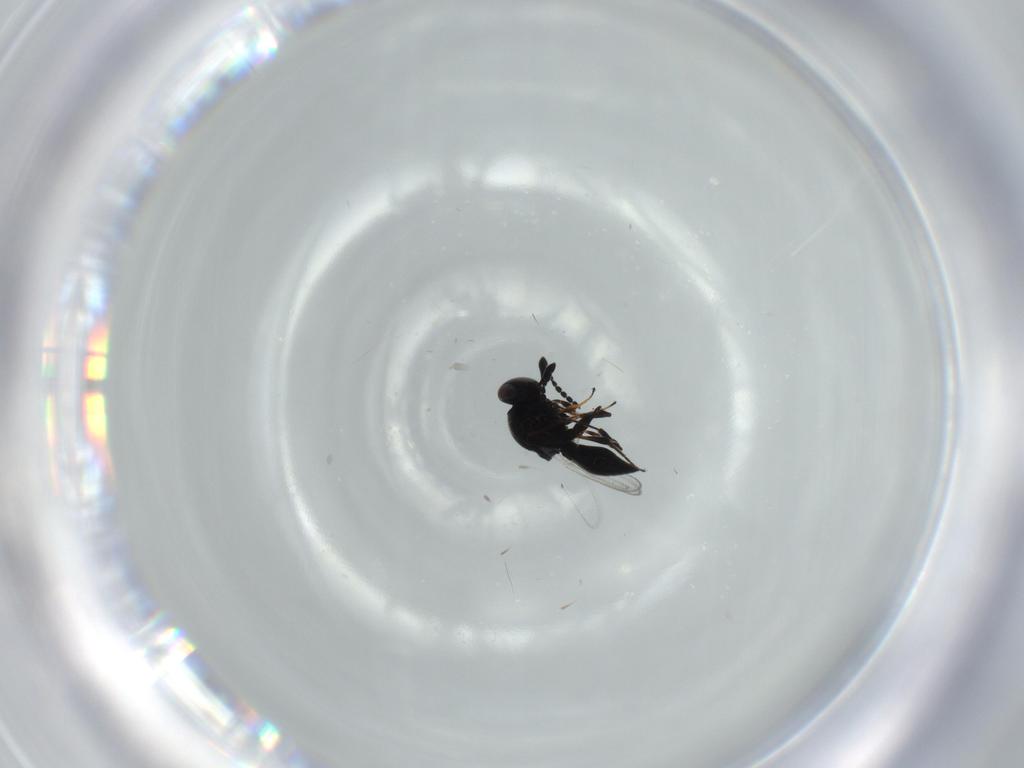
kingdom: Animalia
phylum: Arthropoda
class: Insecta
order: Hymenoptera
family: Platygastridae
